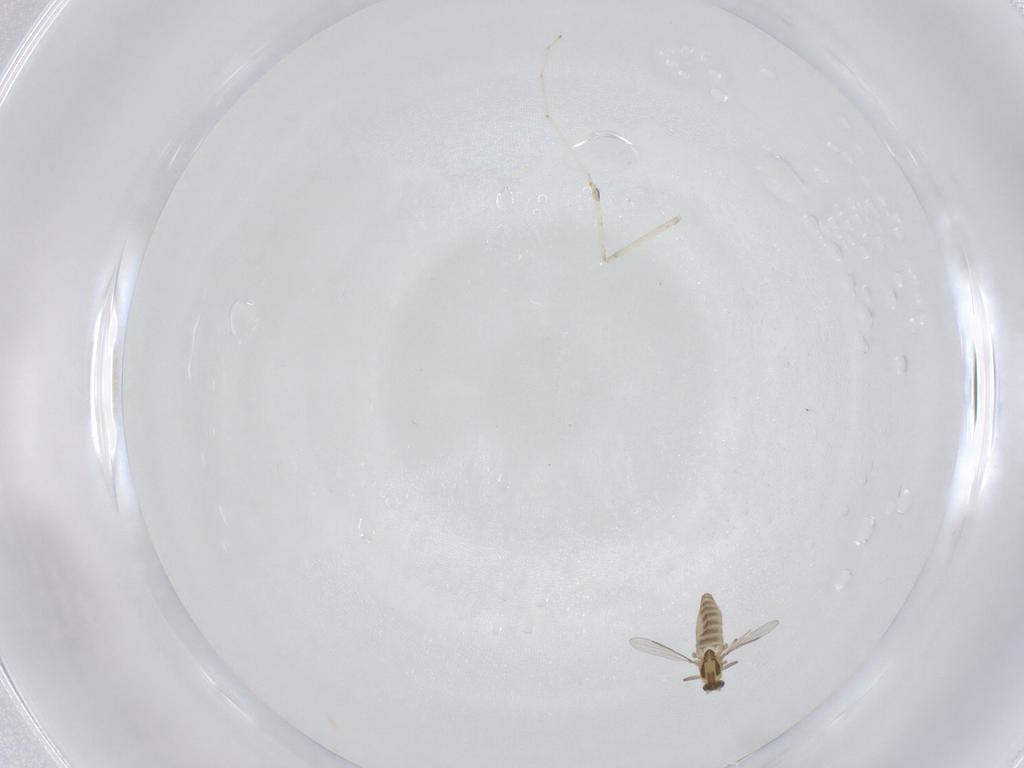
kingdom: Animalia
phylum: Arthropoda
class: Insecta
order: Diptera
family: Chironomidae
